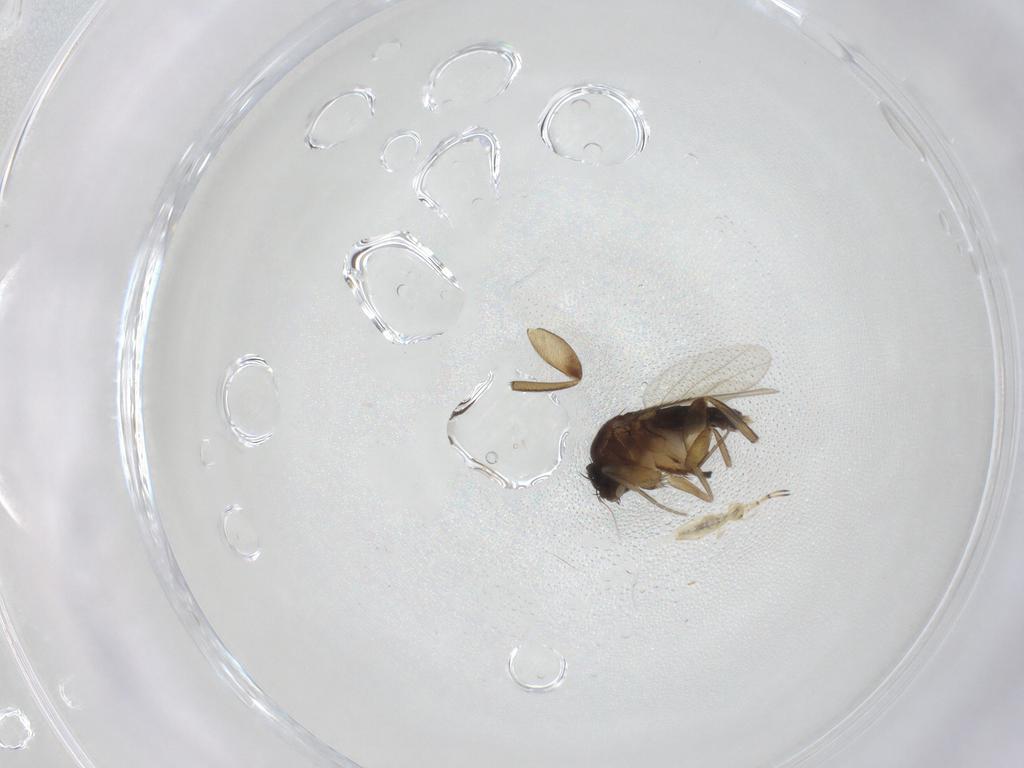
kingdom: Animalia
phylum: Arthropoda
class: Insecta
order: Diptera
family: Phoridae
